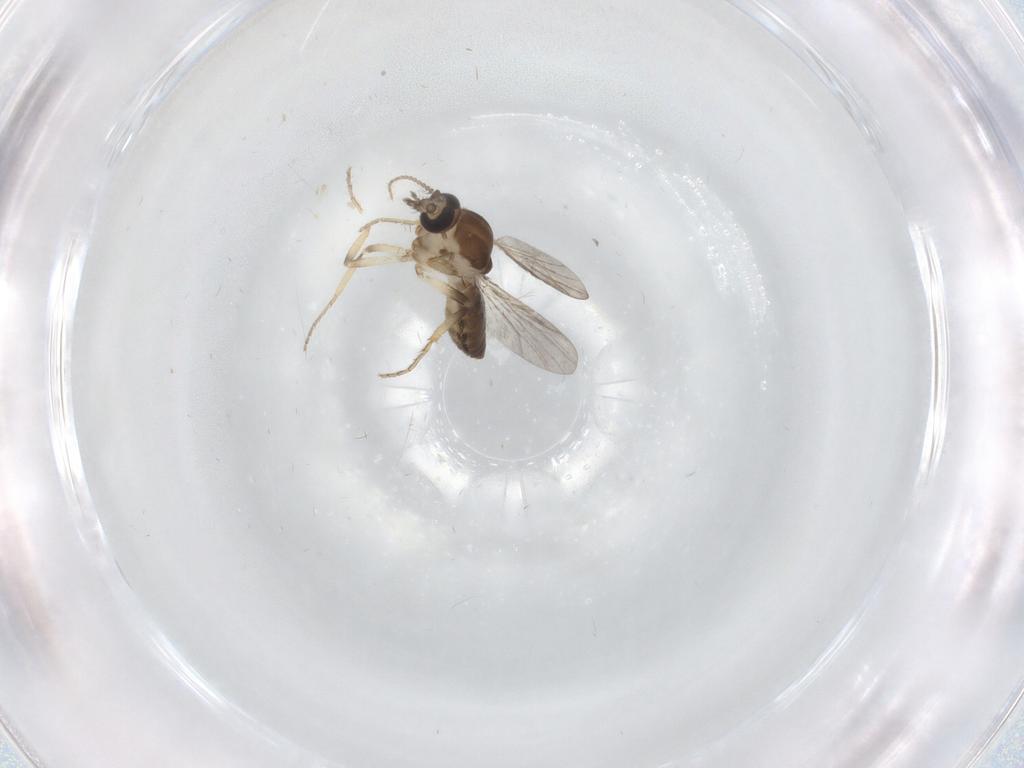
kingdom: Animalia
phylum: Arthropoda
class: Insecta
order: Diptera
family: Ceratopogonidae
